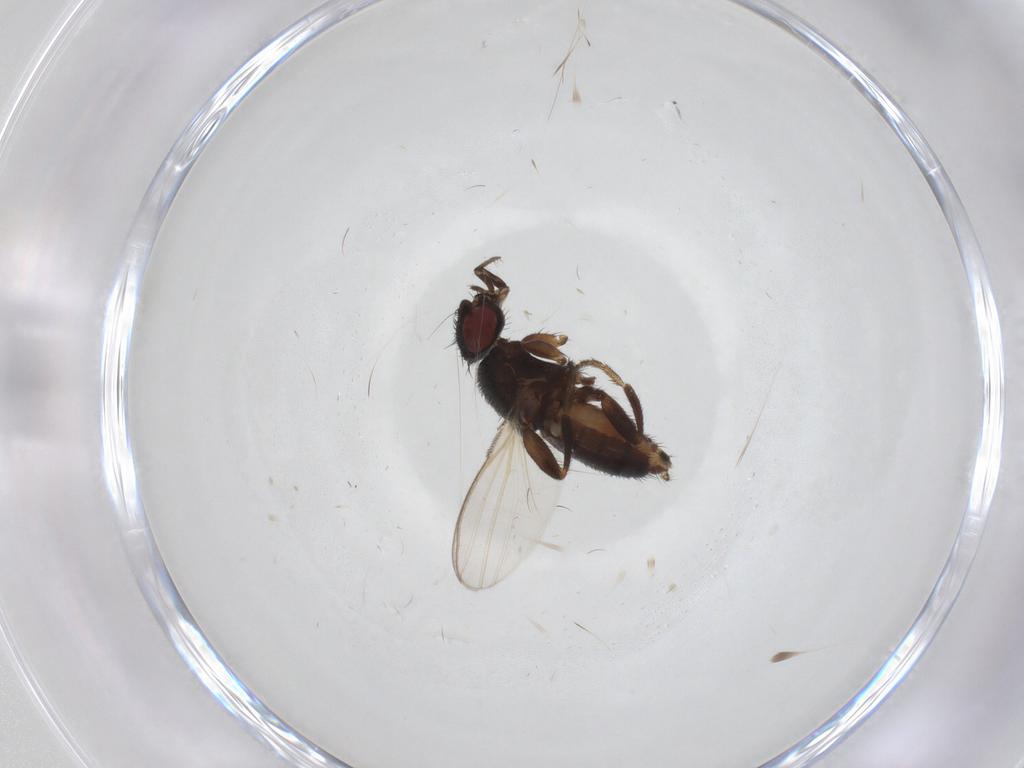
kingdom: Animalia
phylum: Arthropoda
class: Insecta
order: Diptera
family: Milichiidae
